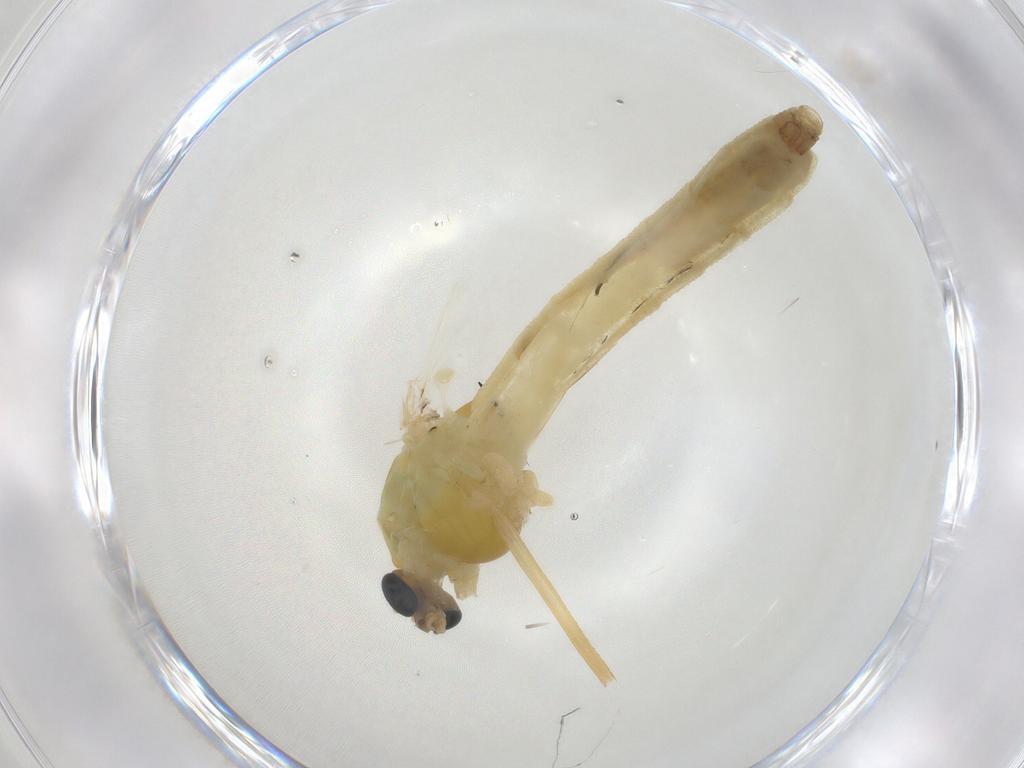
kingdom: Animalia
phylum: Arthropoda
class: Insecta
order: Diptera
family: Chironomidae
